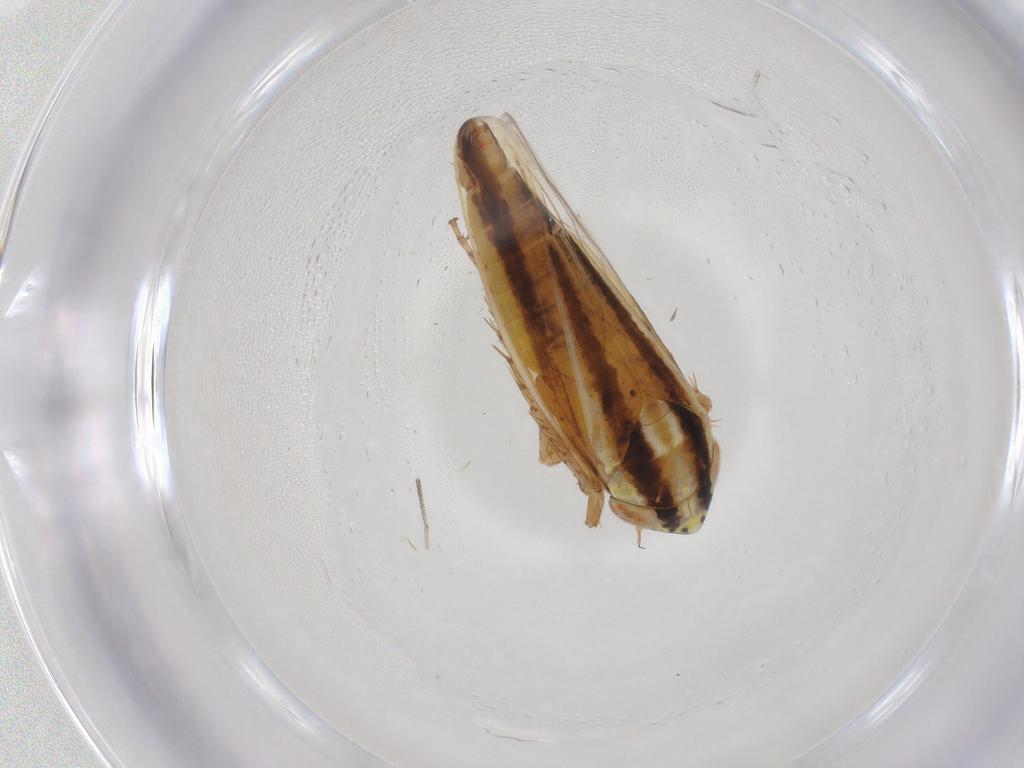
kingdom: Animalia
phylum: Arthropoda
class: Insecta
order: Hemiptera
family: Cicadellidae
